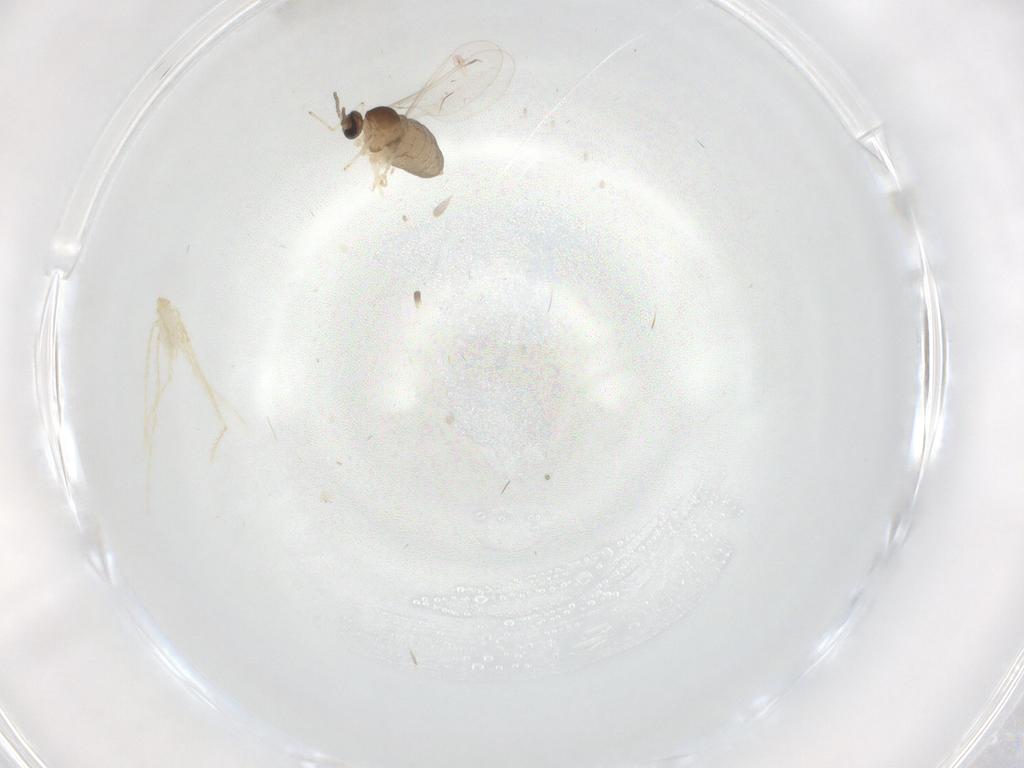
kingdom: Animalia
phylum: Arthropoda
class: Insecta
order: Diptera
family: Cecidomyiidae
